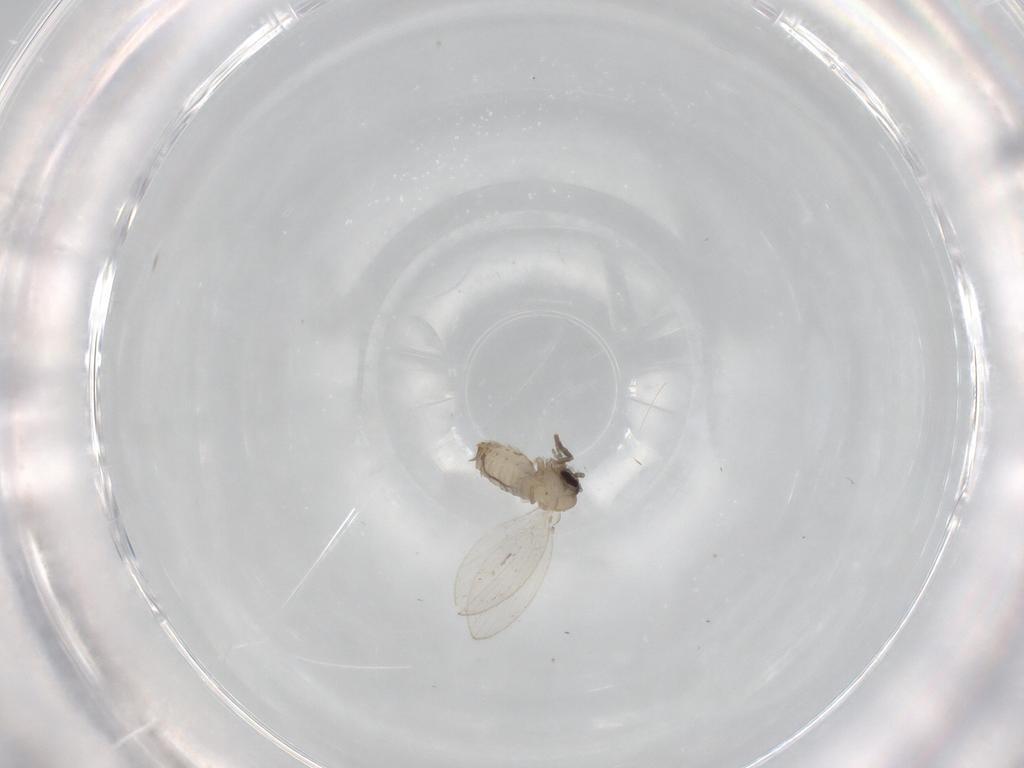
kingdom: Animalia
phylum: Arthropoda
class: Insecta
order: Diptera
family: Psychodidae
